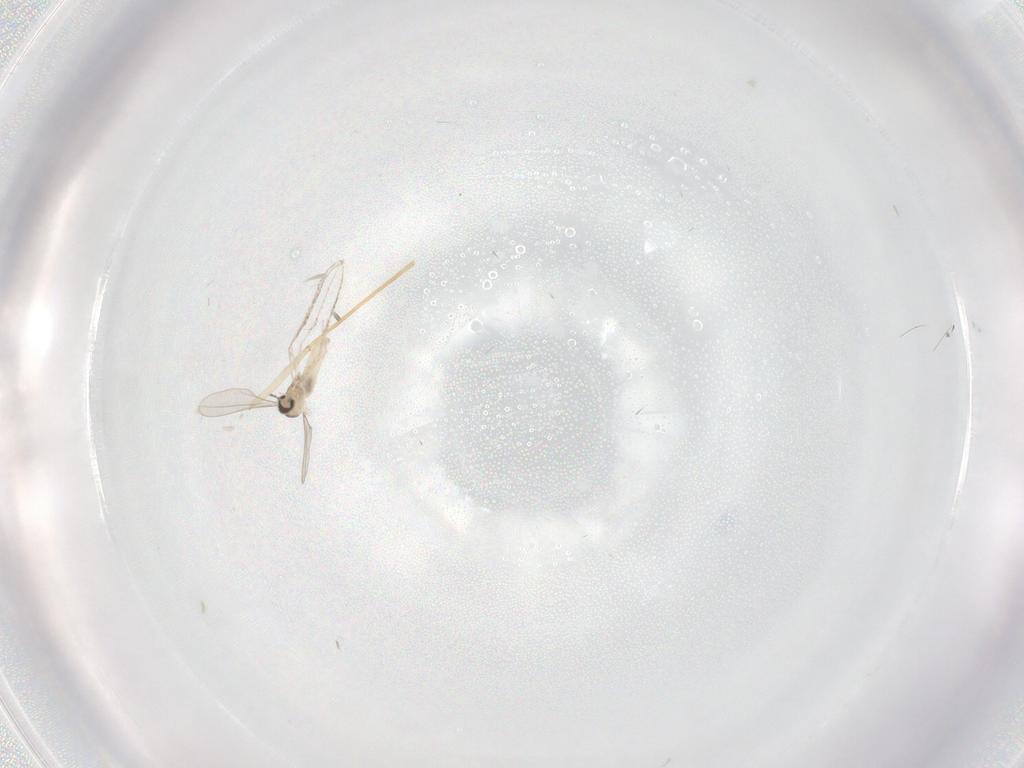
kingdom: Animalia
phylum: Arthropoda
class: Insecta
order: Diptera
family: Cecidomyiidae
